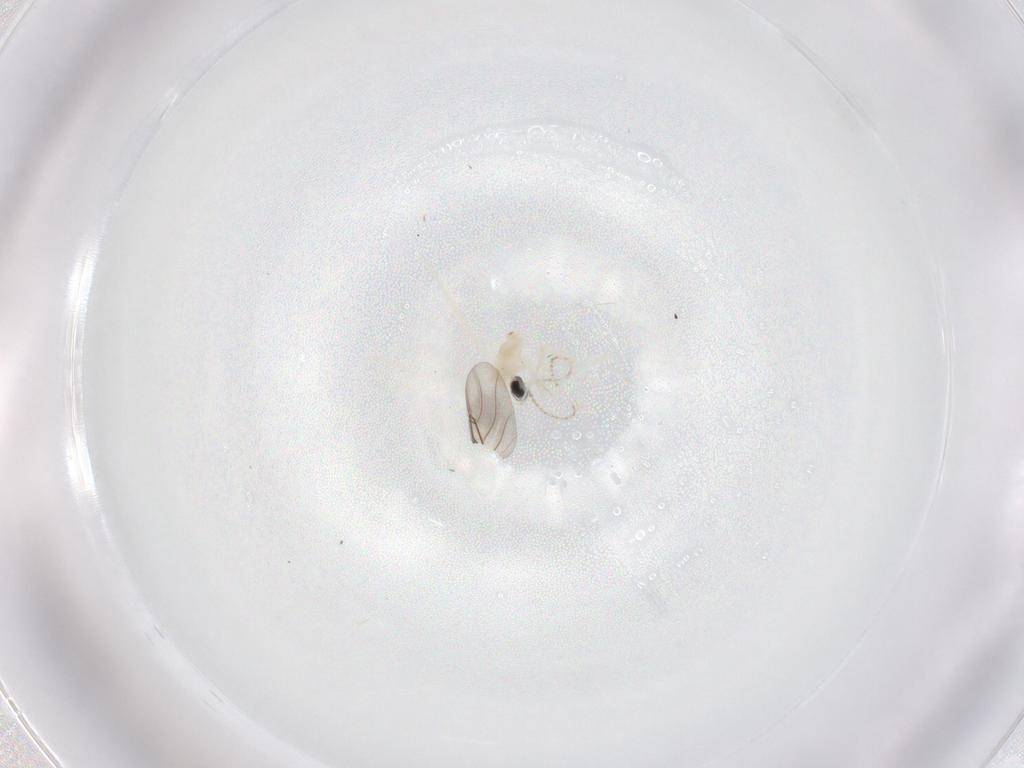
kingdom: Animalia
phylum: Arthropoda
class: Insecta
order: Diptera
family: Cecidomyiidae
